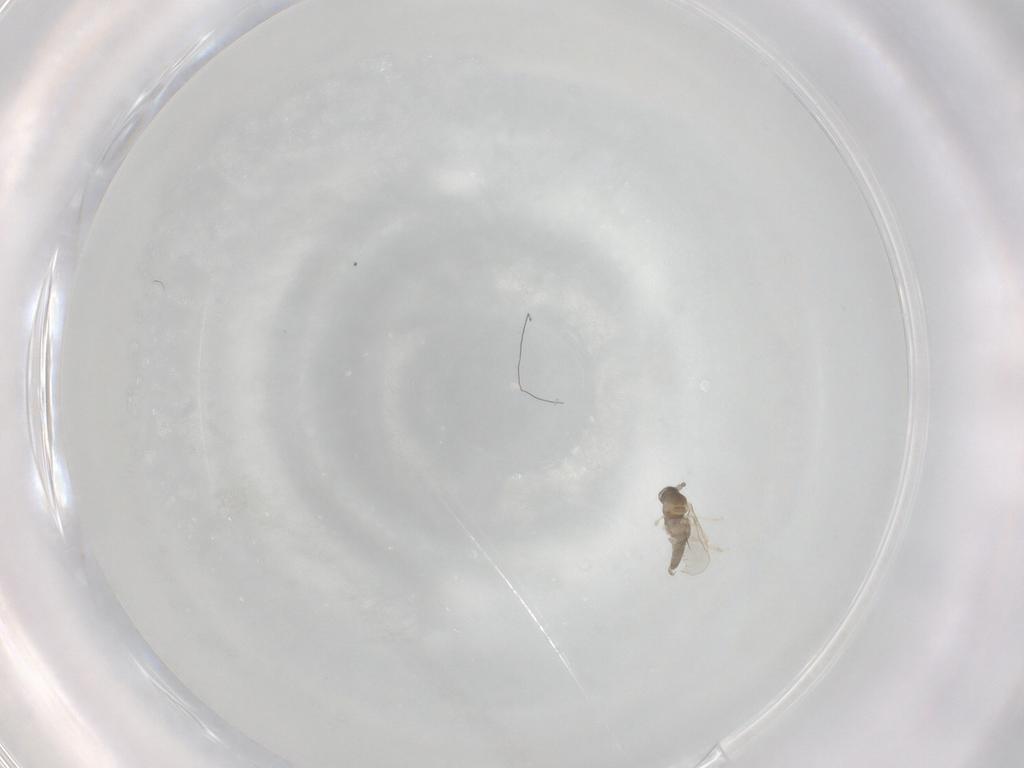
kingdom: Animalia
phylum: Arthropoda
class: Insecta
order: Diptera
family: Cecidomyiidae
